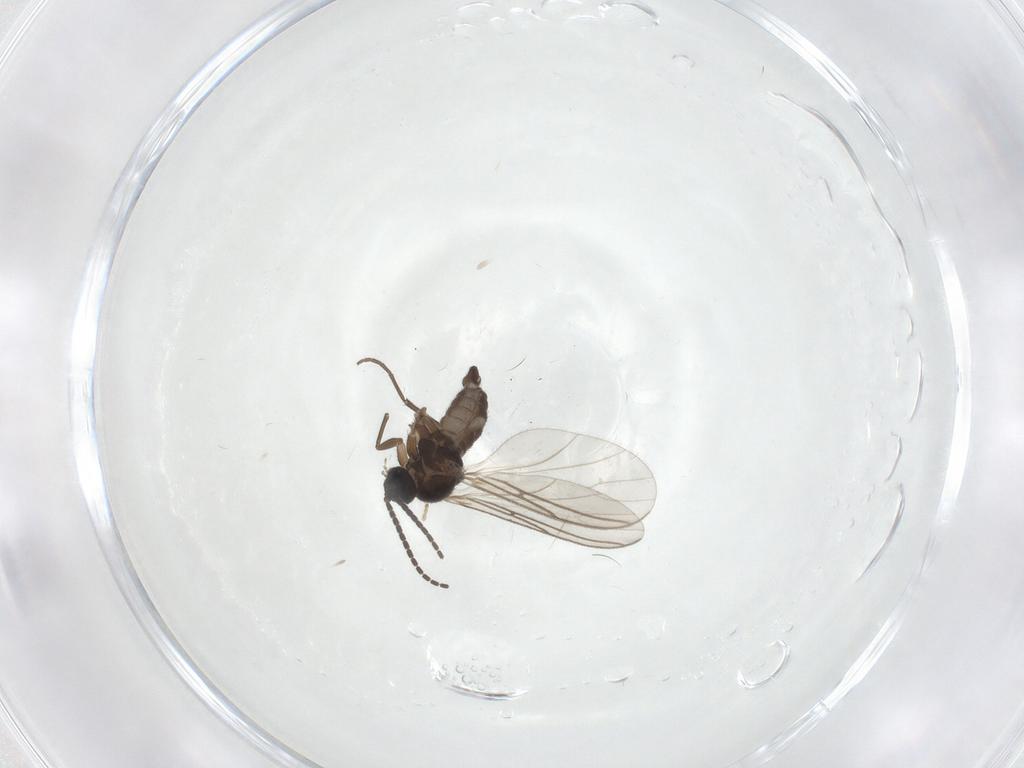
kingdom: Animalia
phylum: Arthropoda
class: Insecta
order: Diptera
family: Sciaridae
